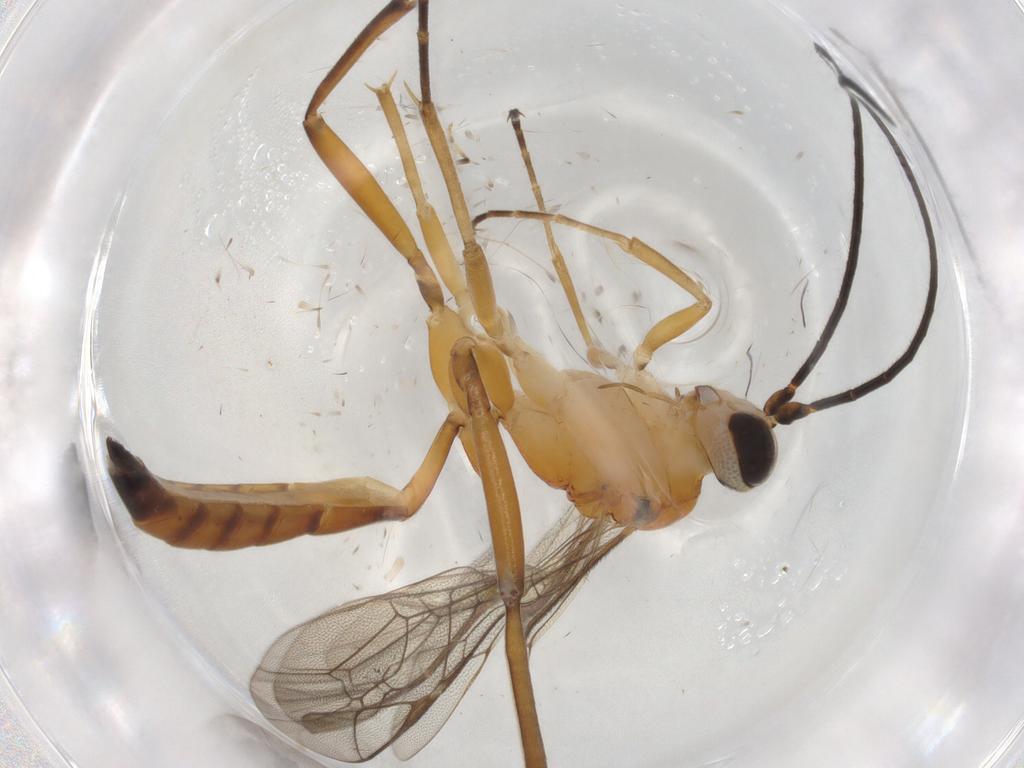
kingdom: Animalia
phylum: Arthropoda
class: Insecta
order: Hymenoptera
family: Ichneumonidae
